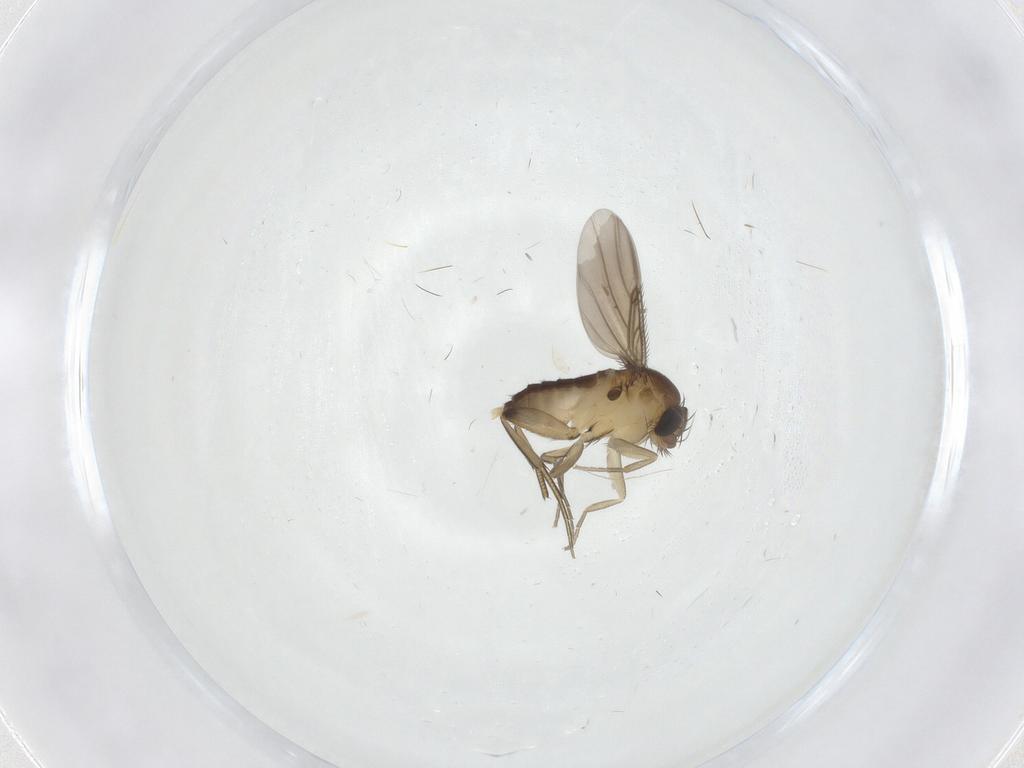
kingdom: Animalia
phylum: Arthropoda
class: Insecta
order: Diptera
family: Phoridae
